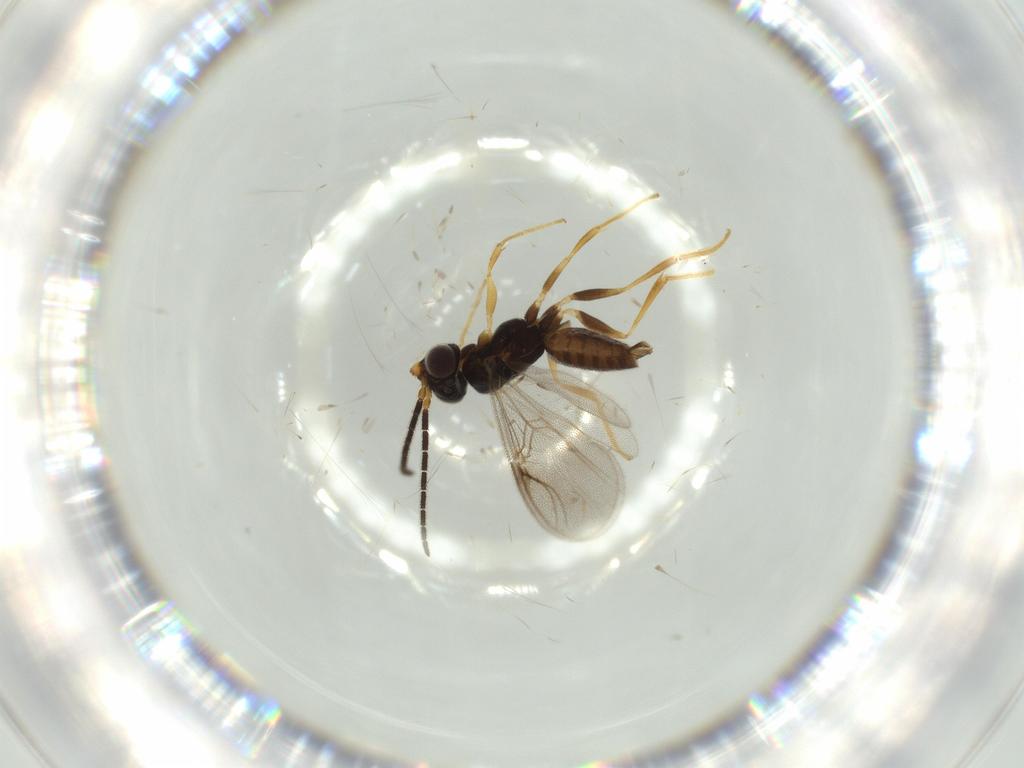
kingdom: Animalia
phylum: Arthropoda
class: Insecta
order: Hymenoptera
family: Dryinidae
